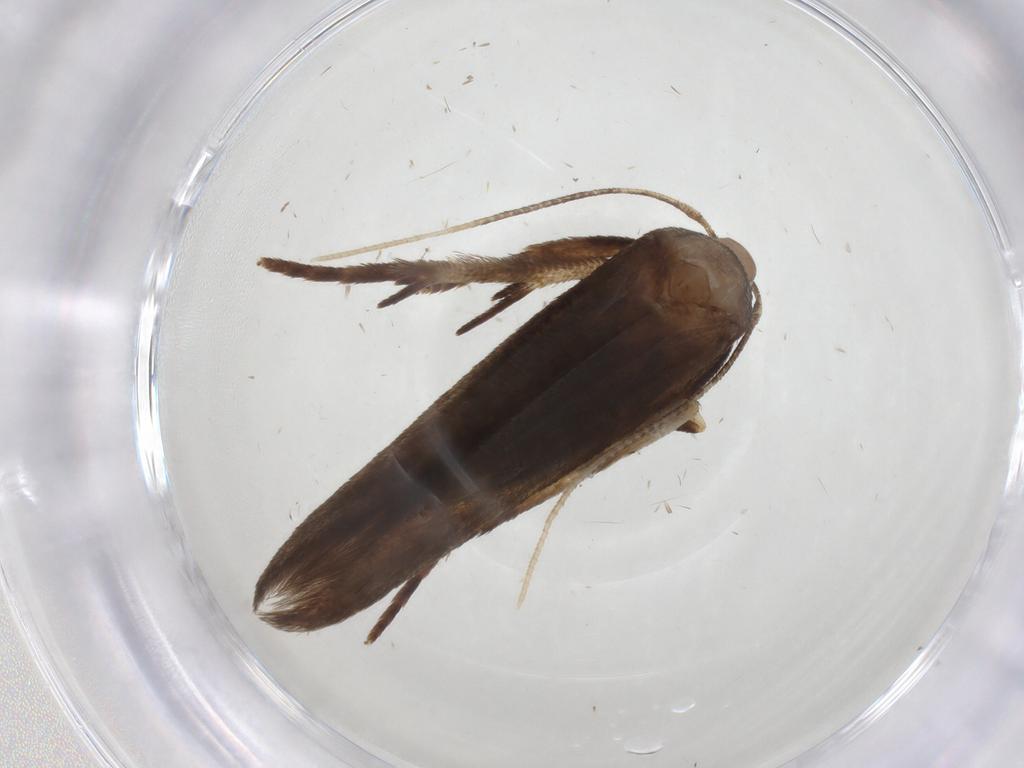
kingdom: Animalia
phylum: Arthropoda
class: Insecta
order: Lepidoptera
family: Cosmopterigidae
